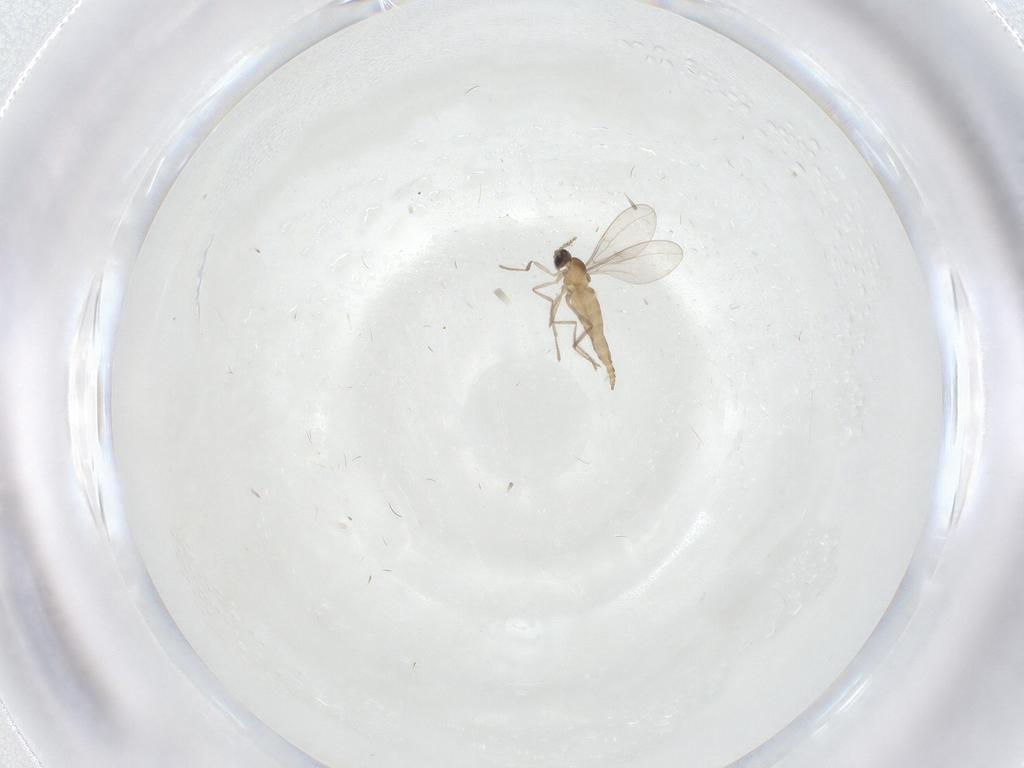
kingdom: Animalia
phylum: Arthropoda
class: Insecta
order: Diptera
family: Cecidomyiidae
